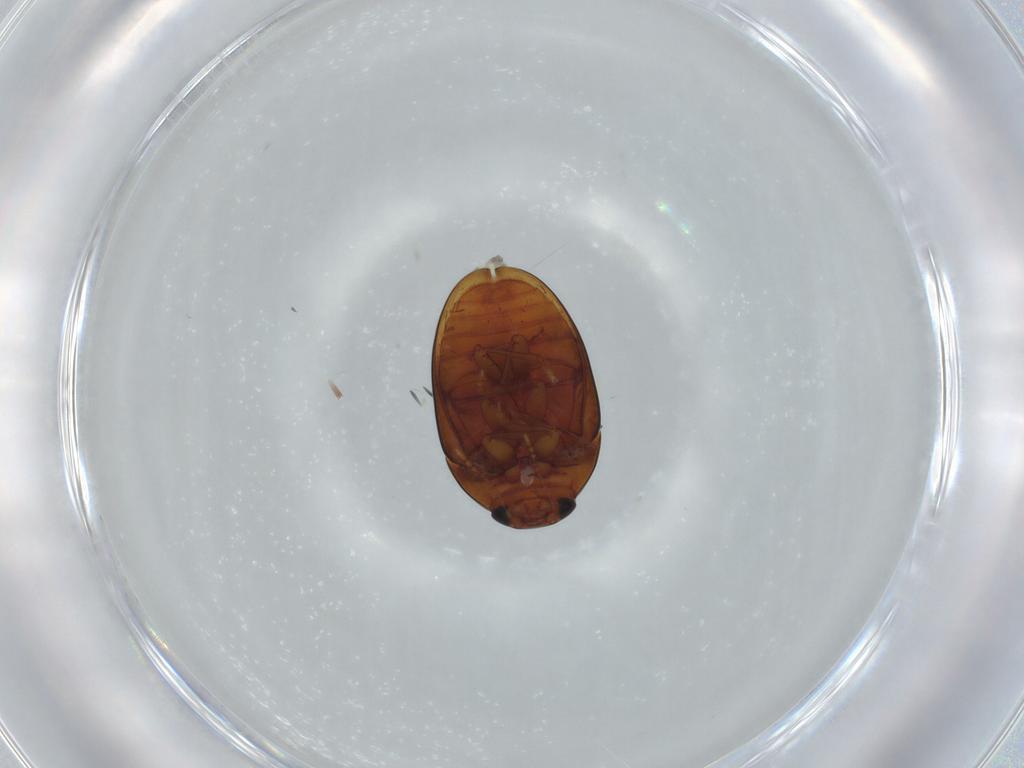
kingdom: Animalia
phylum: Arthropoda
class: Insecta
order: Coleoptera
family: Phalacridae
